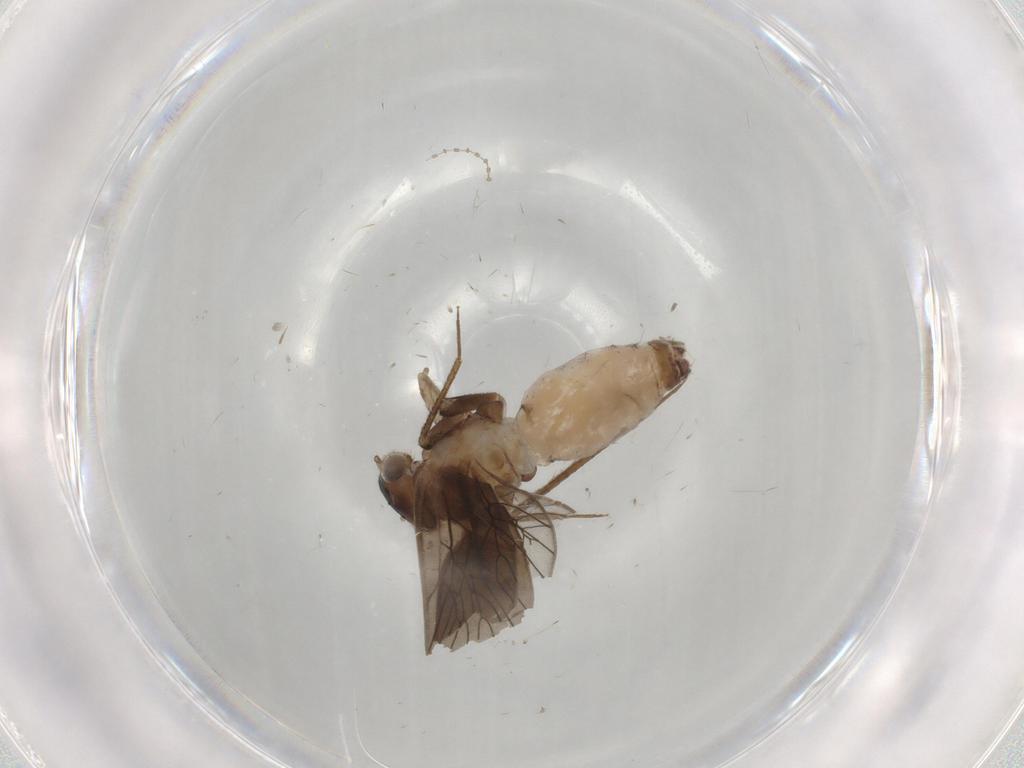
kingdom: Animalia
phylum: Arthropoda
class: Insecta
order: Psocodea
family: Lepidopsocidae
